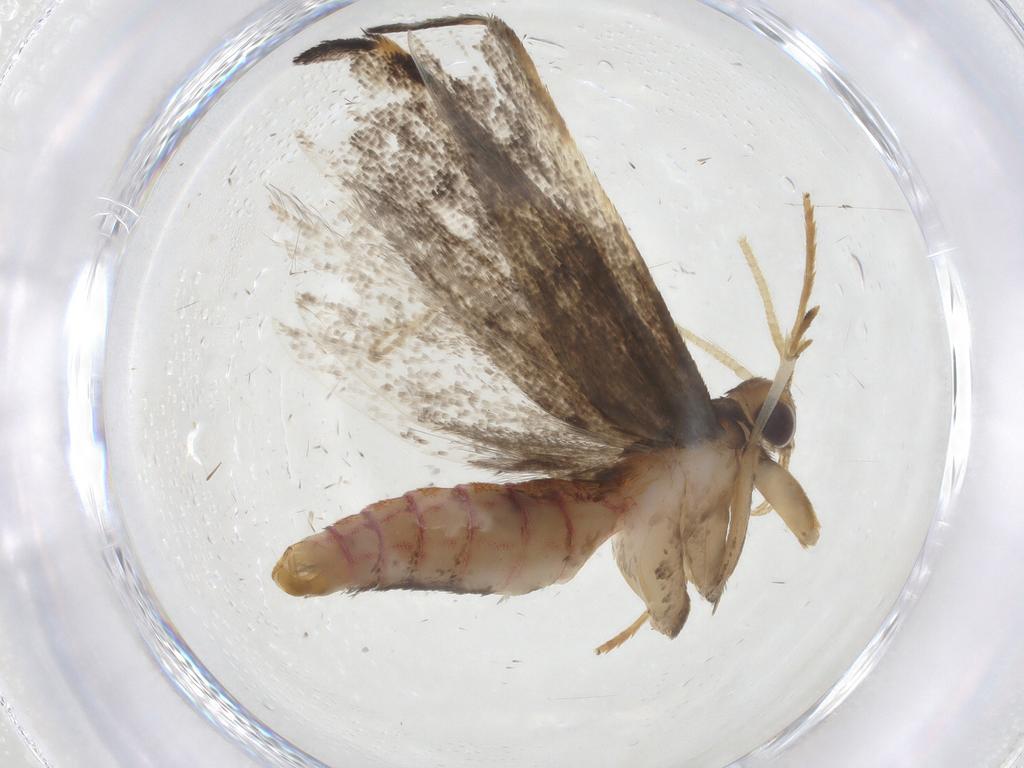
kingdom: Animalia
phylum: Arthropoda
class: Insecta
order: Lepidoptera
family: Lecithoceridae
